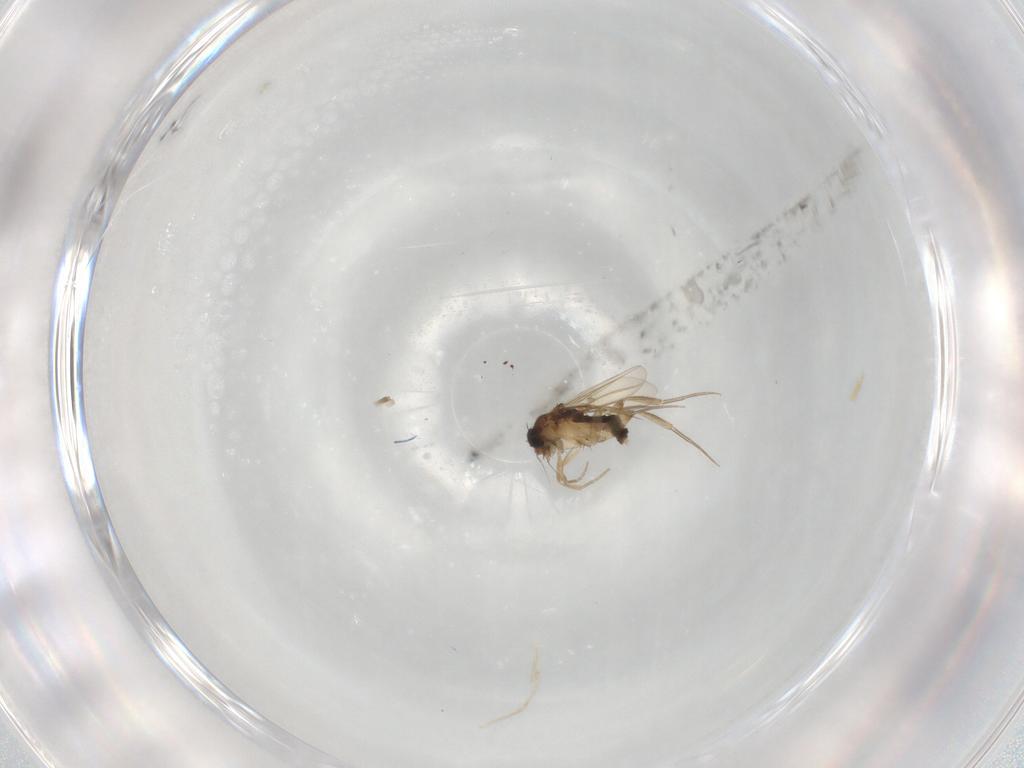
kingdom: Animalia
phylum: Arthropoda
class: Insecta
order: Diptera
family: Phoridae
